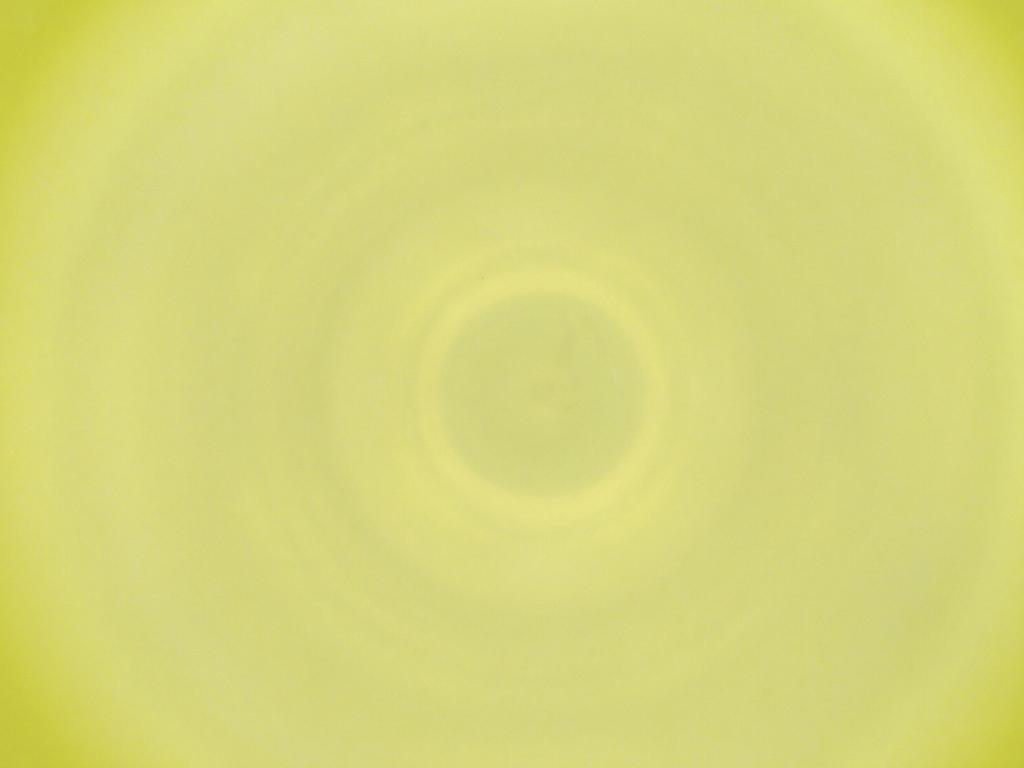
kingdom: Animalia
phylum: Arthropoda
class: Insecta
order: Diptera
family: Cecidomyiidae
